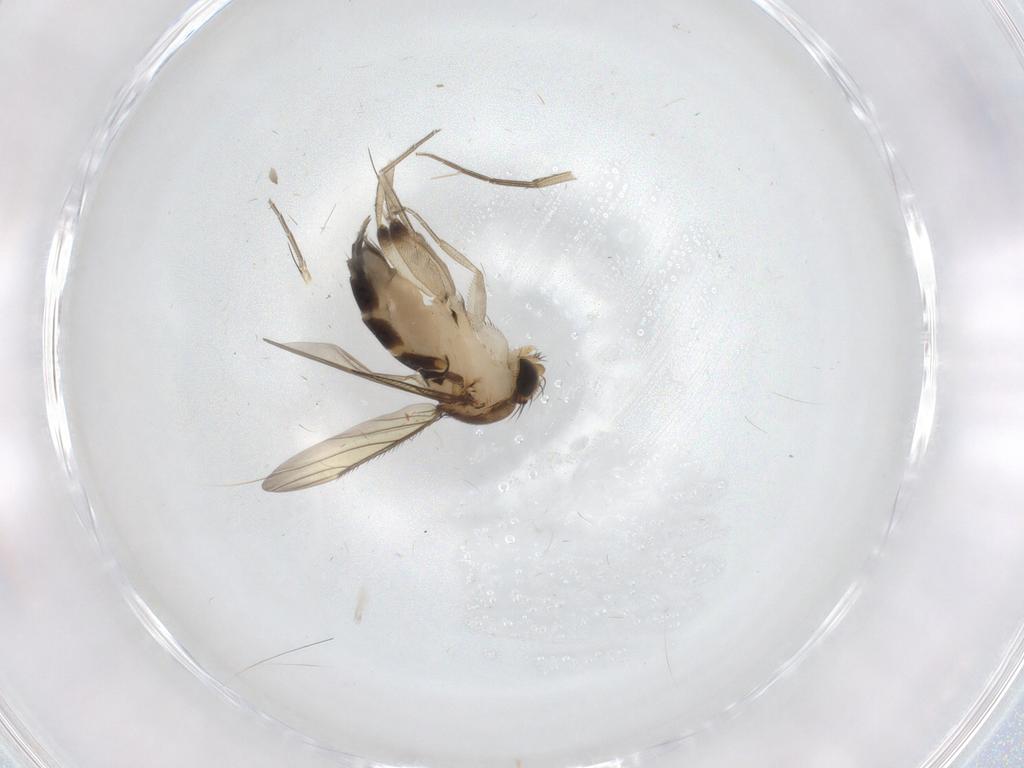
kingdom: Animalia
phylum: Arthropoda
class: Insecta
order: Diptera
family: Phoridae
